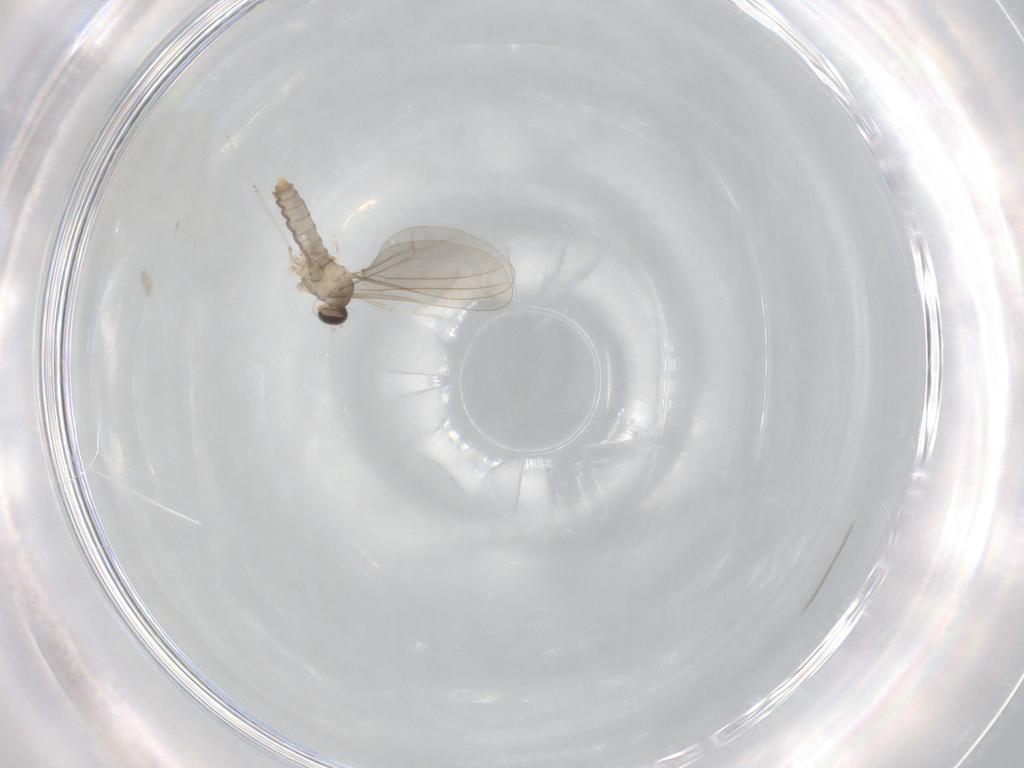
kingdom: Animalia
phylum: Arthropoda
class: Insecta
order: Diptera
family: Cecidomyiidae
